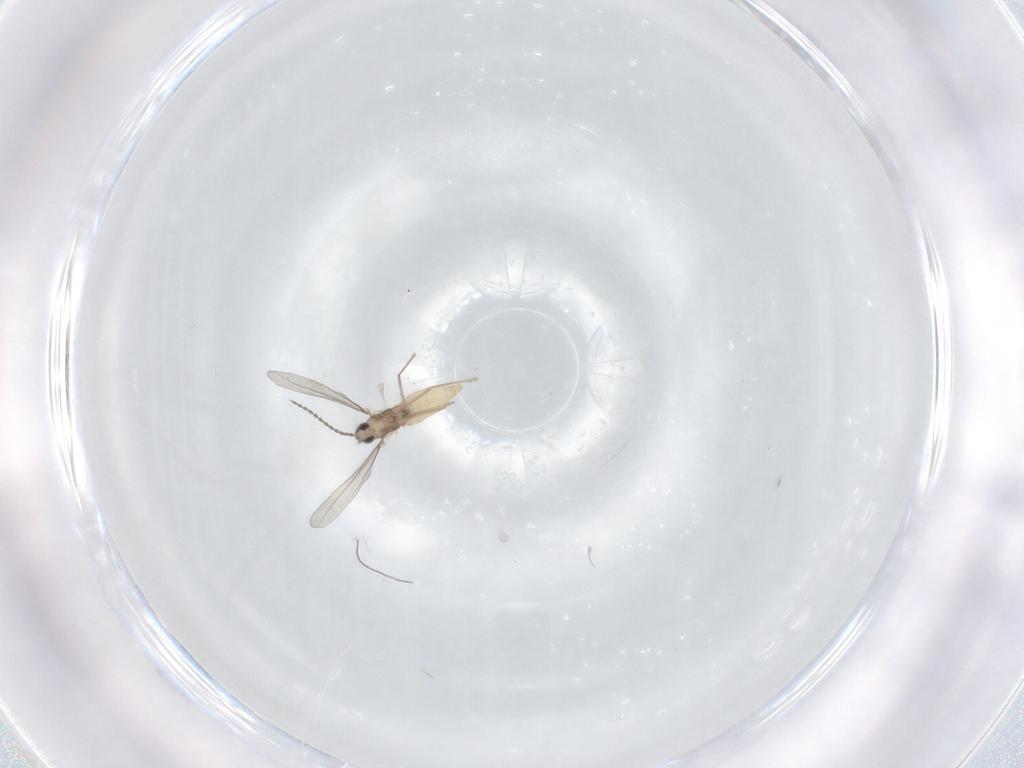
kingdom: Animalia
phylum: Arthropoda
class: Insecta
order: Diptera
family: Cecidomyiidae
